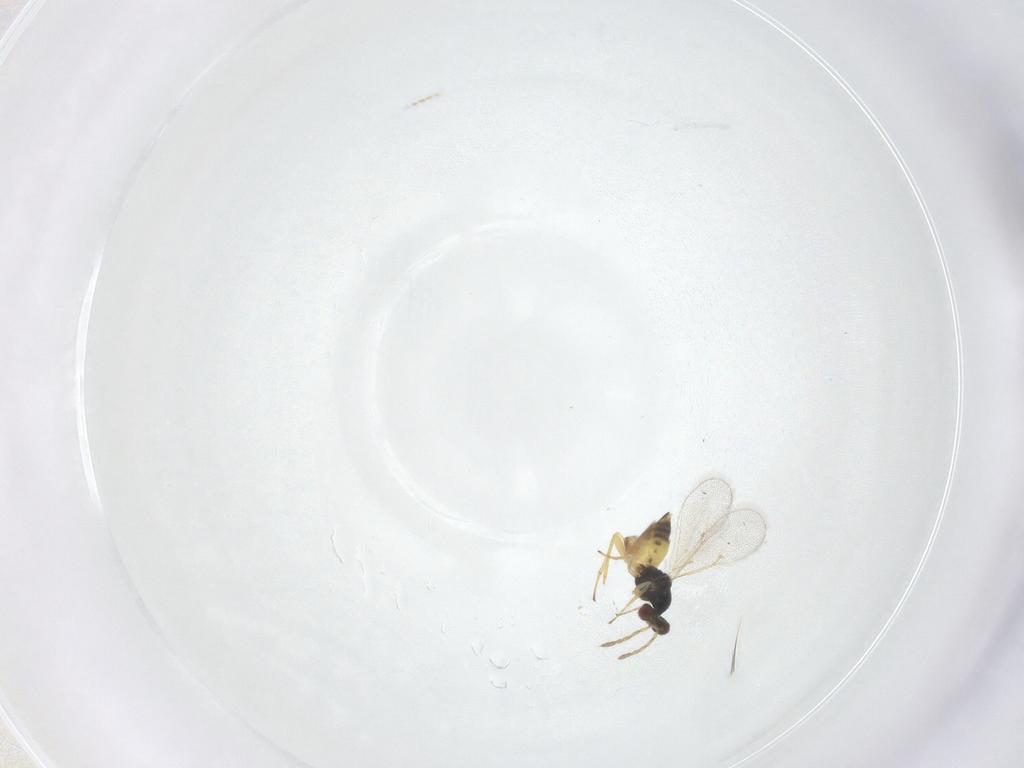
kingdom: Animalia
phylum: Arthropoda
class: Insecta
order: Hymenoptera
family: Eulophidae
